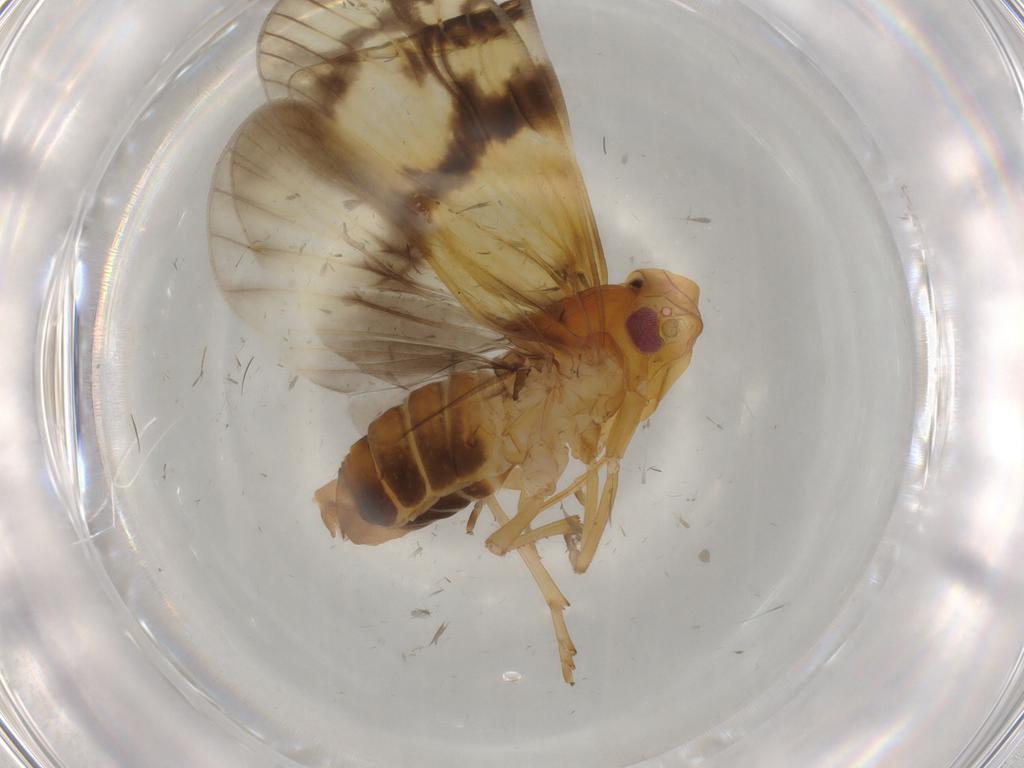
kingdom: Animalia
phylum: Arthropoda
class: Insecta
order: Hemiptera
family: Cixiidae
